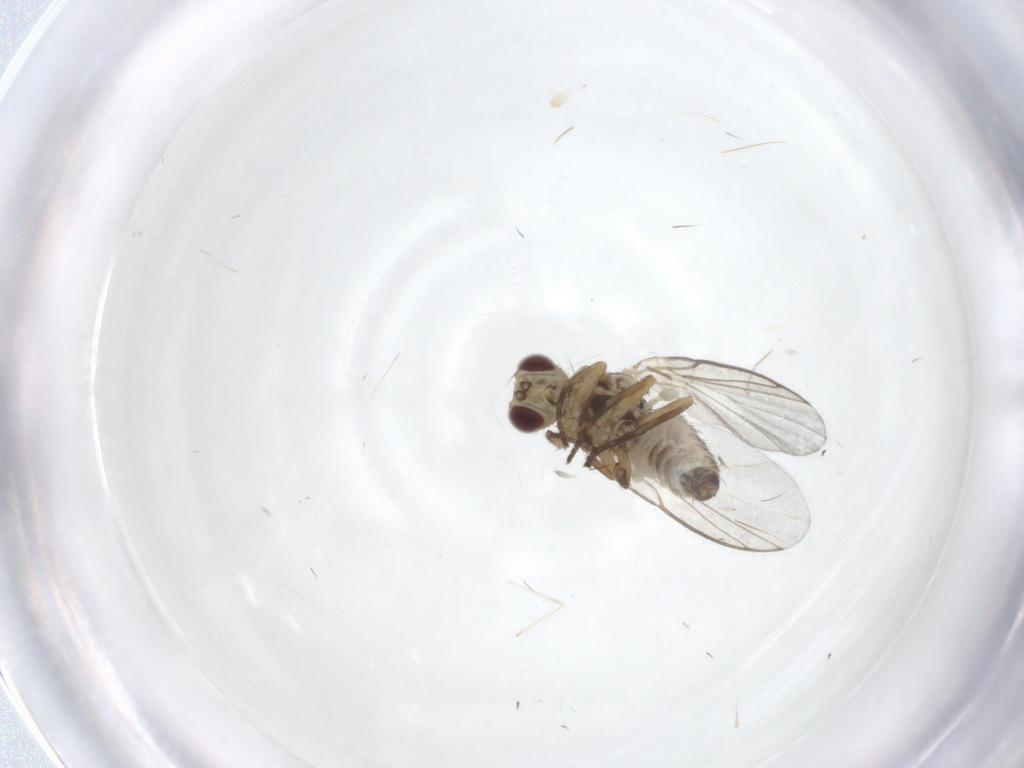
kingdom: Animalia
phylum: Arthropoda
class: Insecta
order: Diptera
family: Agromyzidae
